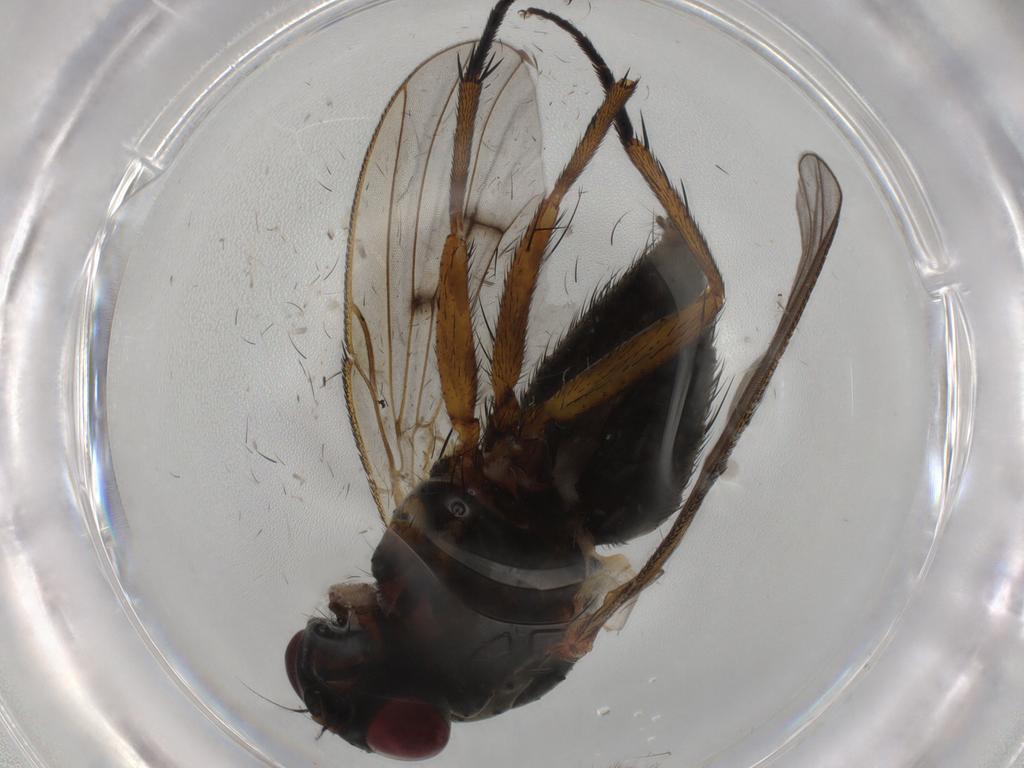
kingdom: Animalia
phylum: Arthropoda
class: Insecta
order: Diptera
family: Muscidae
